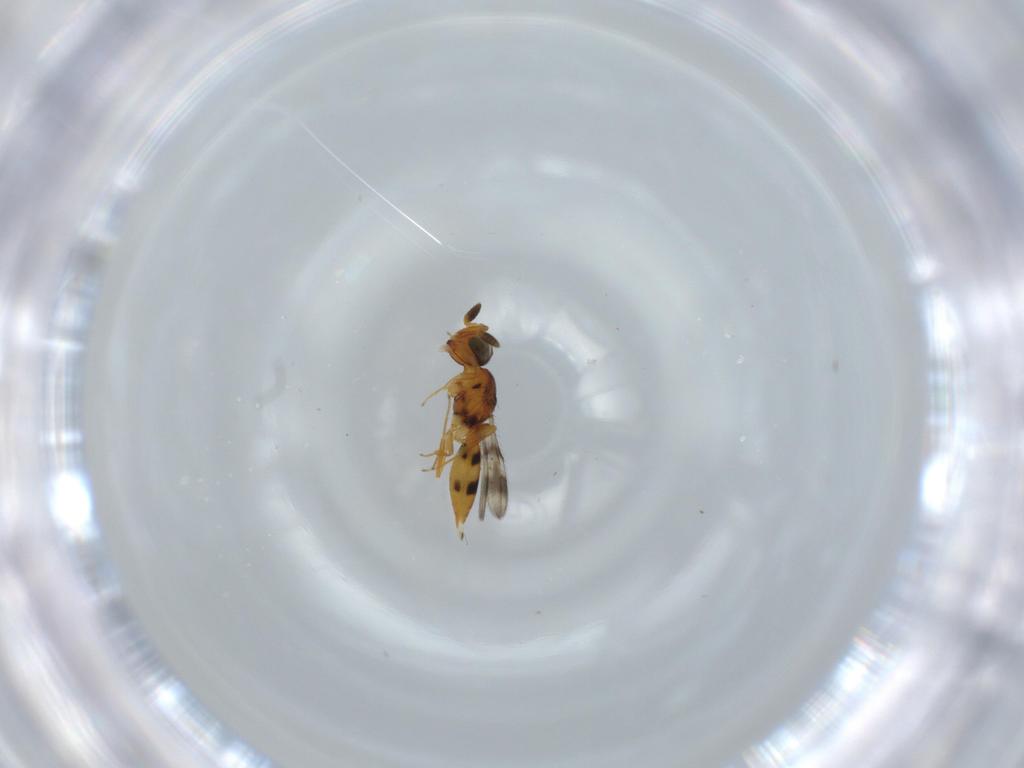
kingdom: Animalia
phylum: Arthropoda
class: Insecta
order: Hymenoptera
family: Scelionidae
